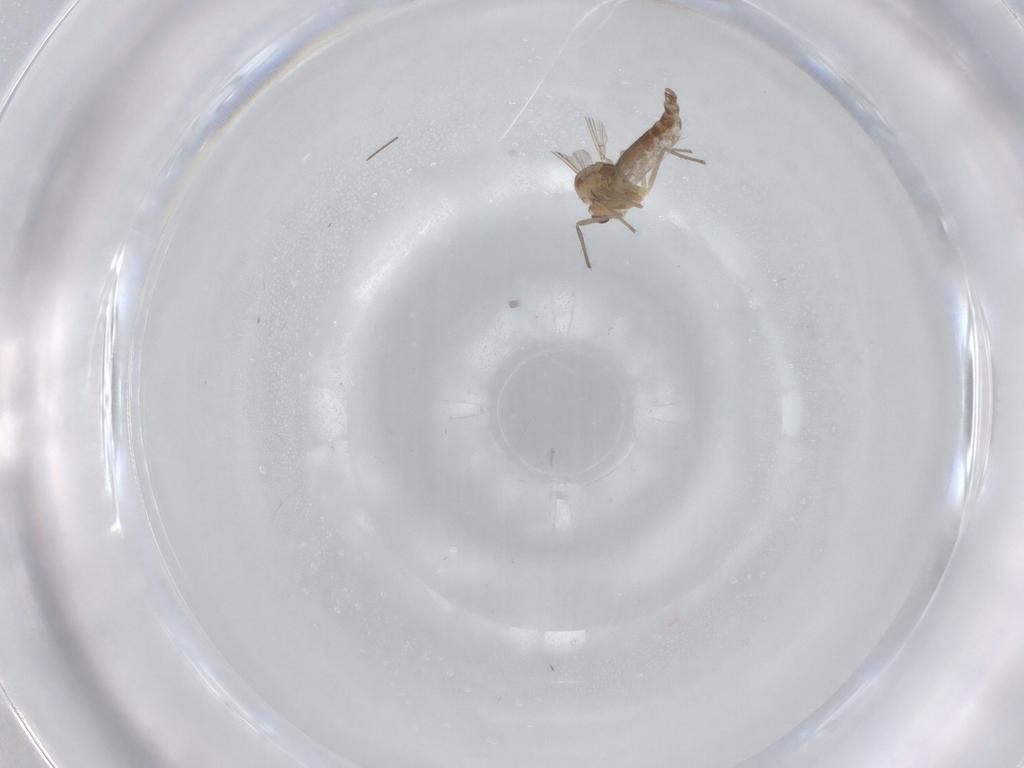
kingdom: Animalia
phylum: Arthropoda
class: Insecta
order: Diptera
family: Chironomidae
